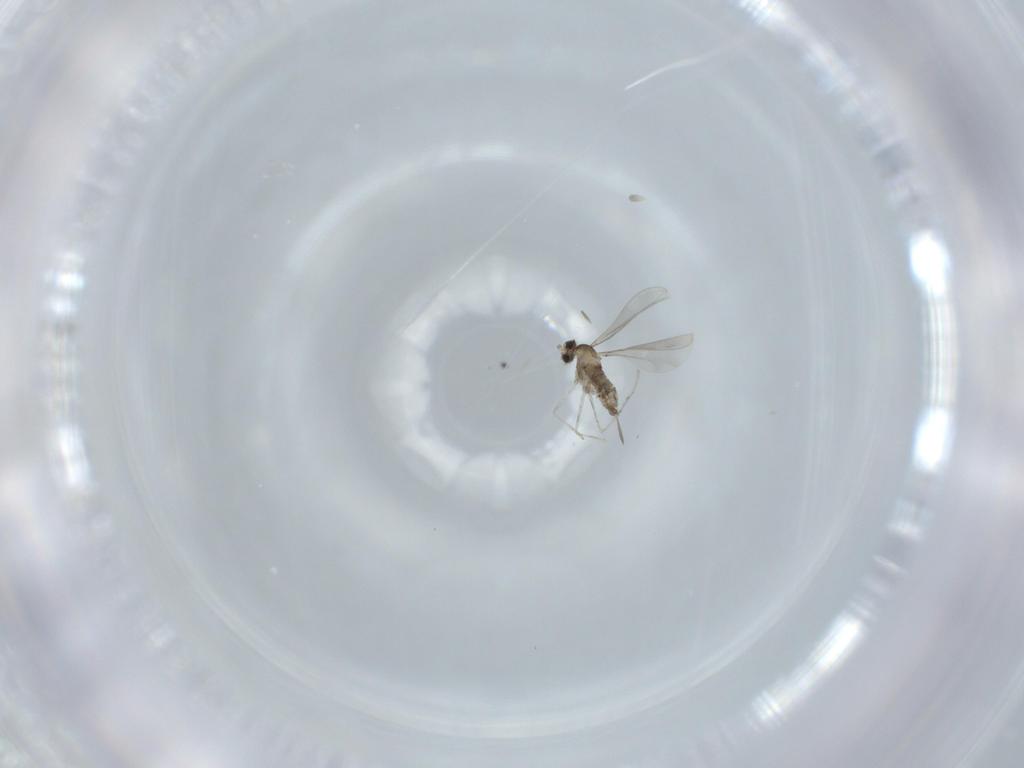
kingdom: Animalia
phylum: Arthropoda
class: Insecta
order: Diptera
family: Cecidomyiidae
